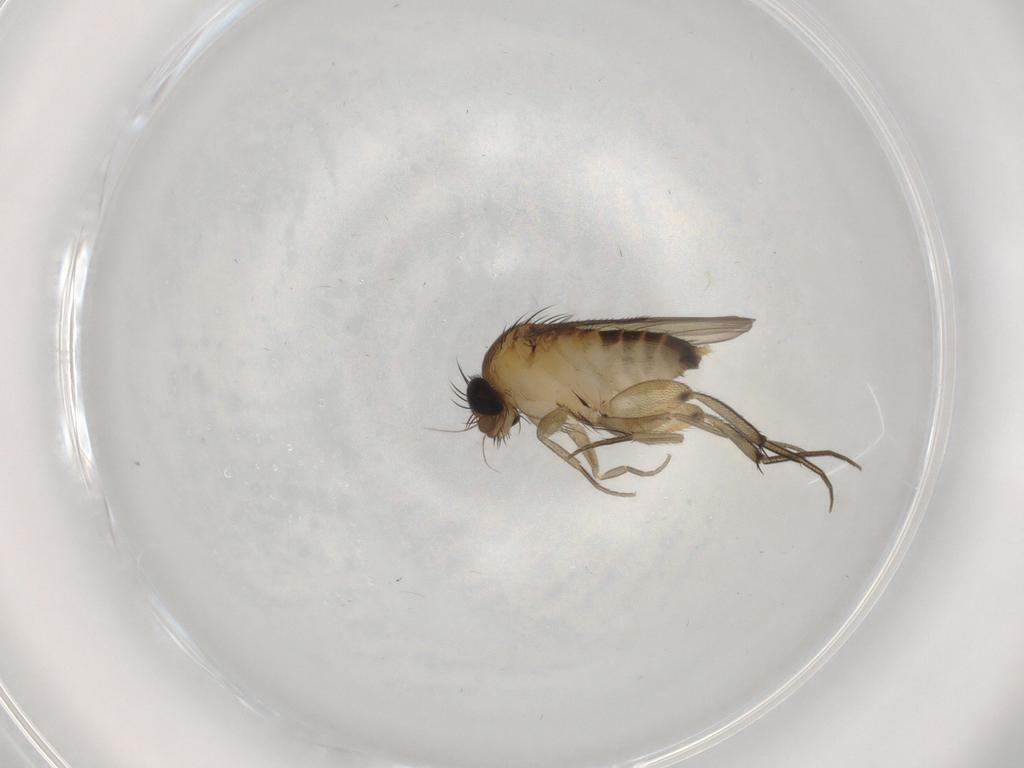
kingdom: Animalia
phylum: Arthropoda
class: Insecta
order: Diptera
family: Phoridae
